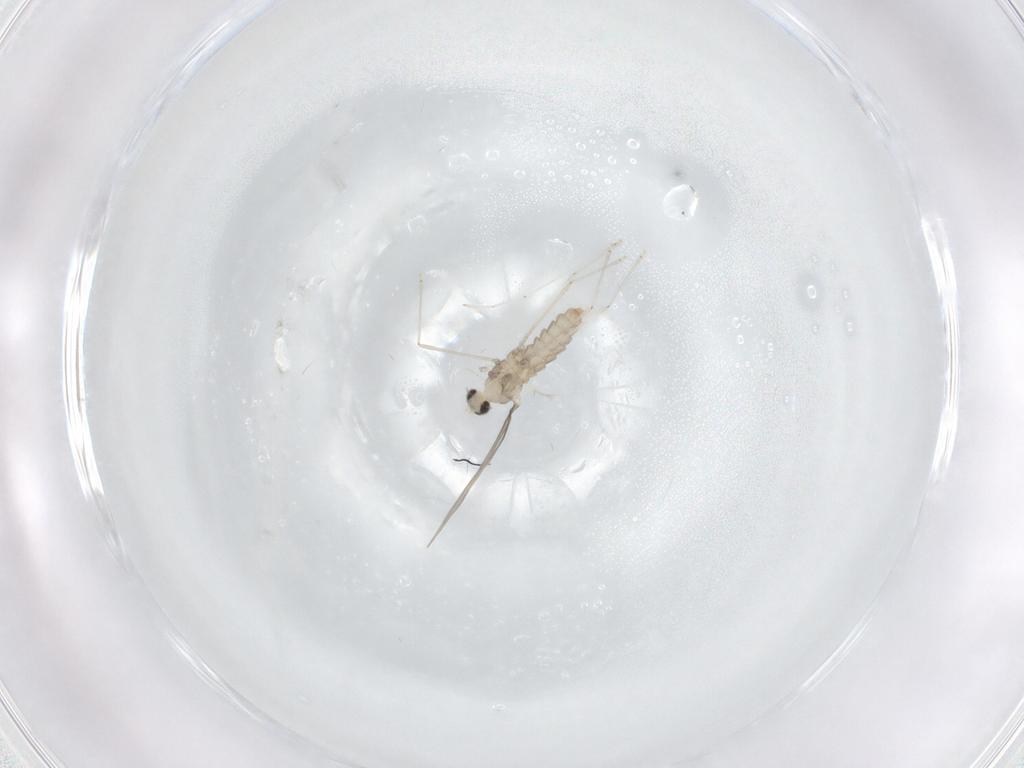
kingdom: Animalia
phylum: Arthropoda
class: Insecta
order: Diptera
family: Cecidomyiidae
